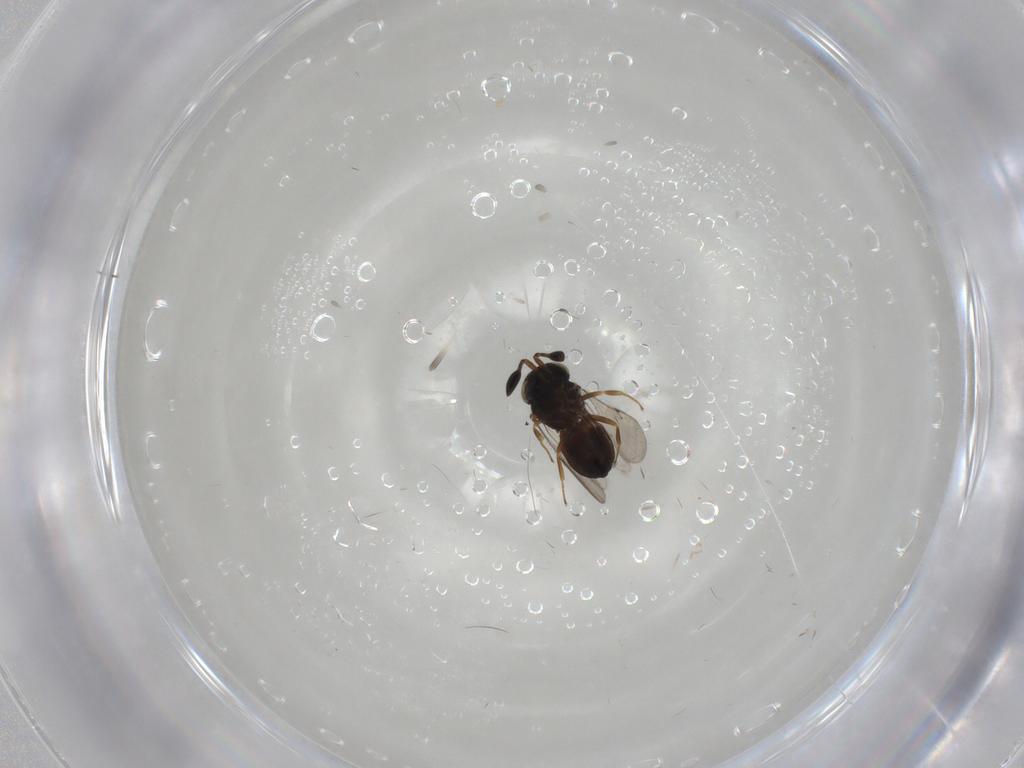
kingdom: Animalia
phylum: Arthropoda
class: Insecta
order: Hymenoptera
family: Scelionidae
